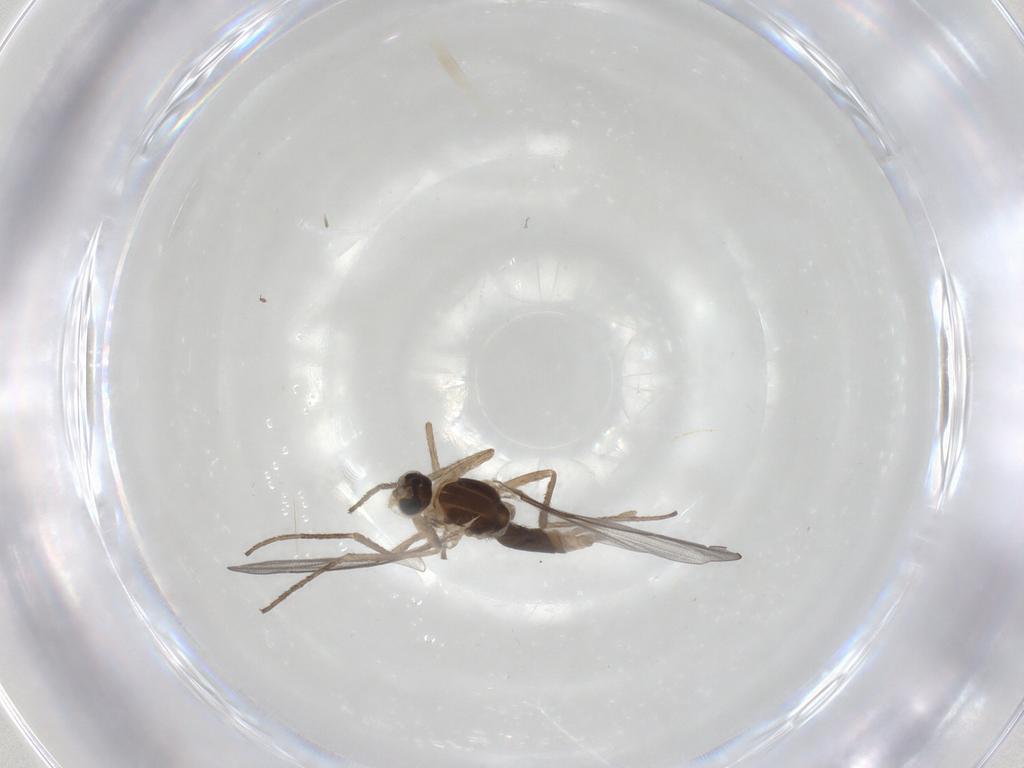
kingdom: Animalia
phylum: Arthropoda
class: Insecta
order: Diptera
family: Cecidomyiidae
